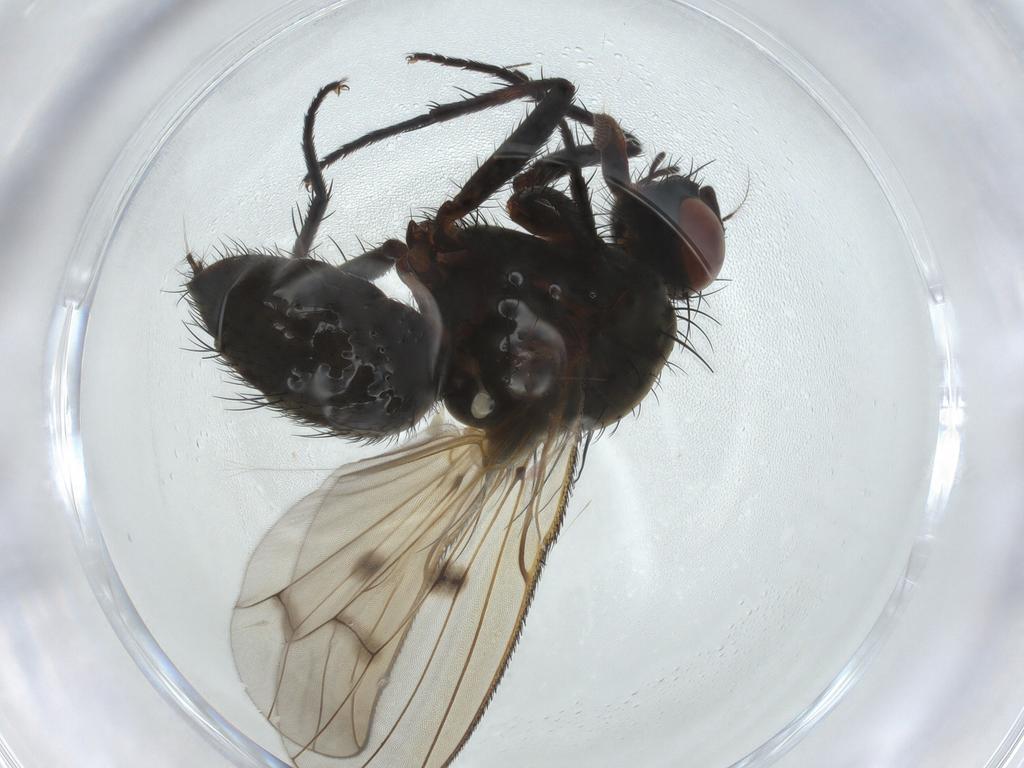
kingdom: Animalia
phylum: Arthropoda
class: Insecta
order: Diptera
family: Anthomyiidae
